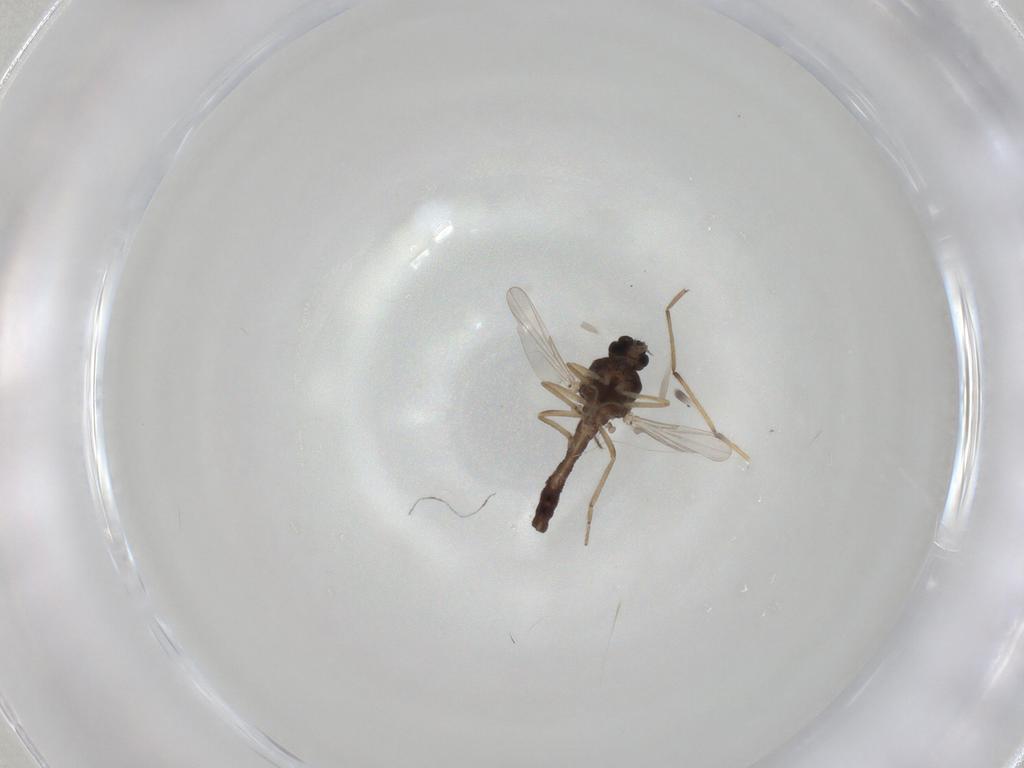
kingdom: Animalia
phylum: Arthropoda
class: Insecta
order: Diptera
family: Ceratopogonidae
